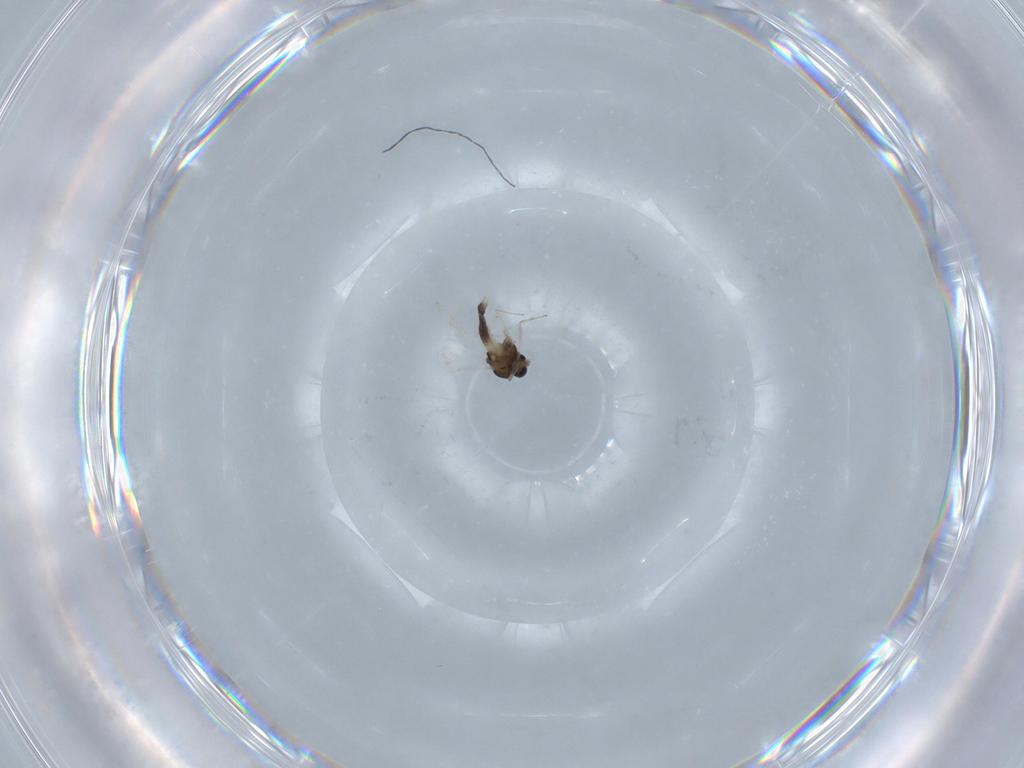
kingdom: Animalia
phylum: Arthropoda
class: Insecta
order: Diptera
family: Chironomidae
